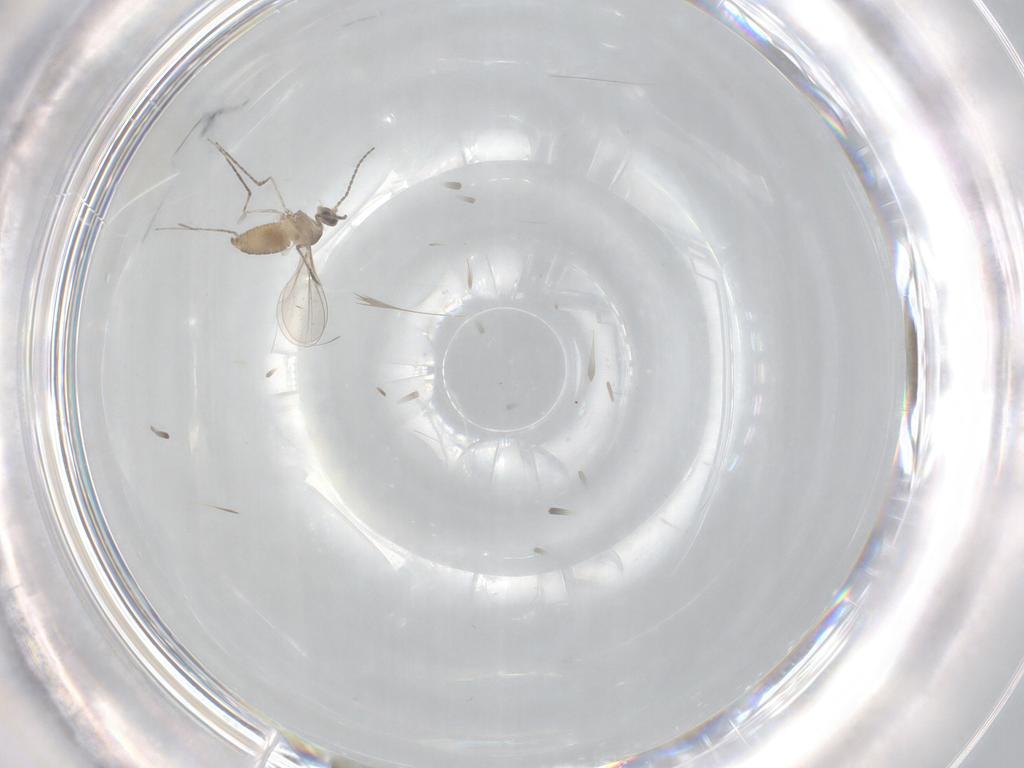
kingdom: Animalia
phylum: Arthropoda
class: Insecta
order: Diptera
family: Cecidomyiidae
